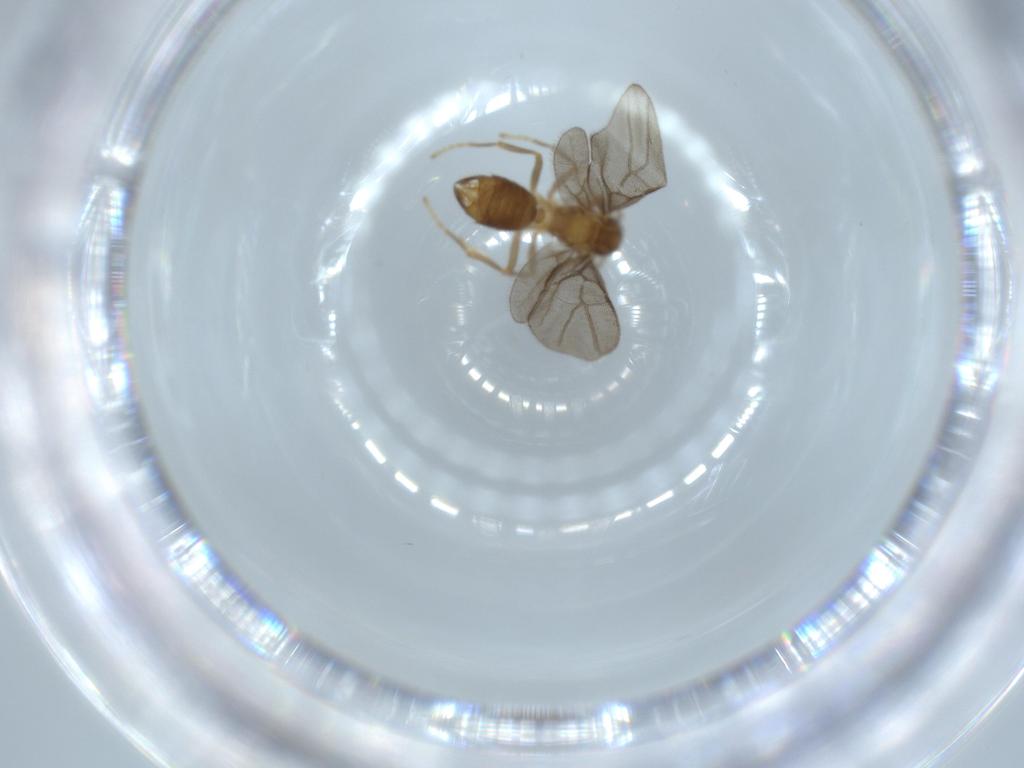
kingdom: Animalia
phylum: Arthropoda
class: Insecta
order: Hymenoptera
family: Formicidae
